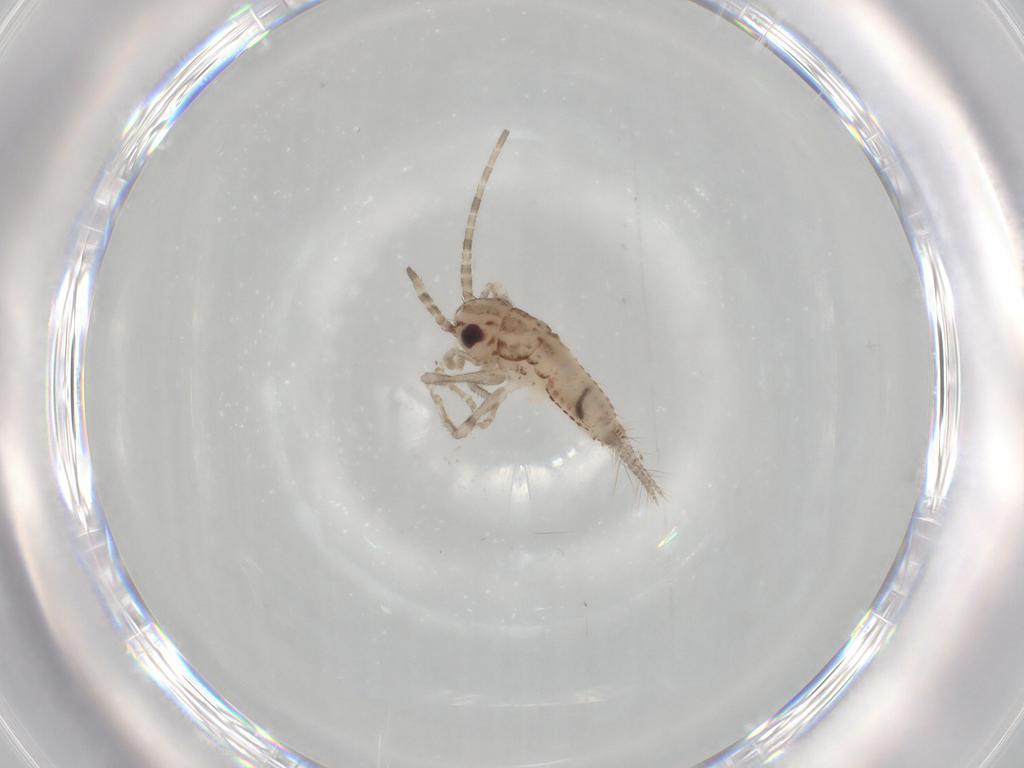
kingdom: Animalia
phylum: Arthropoda
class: Insecta
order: Orthoptera
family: Trigonidiidae
